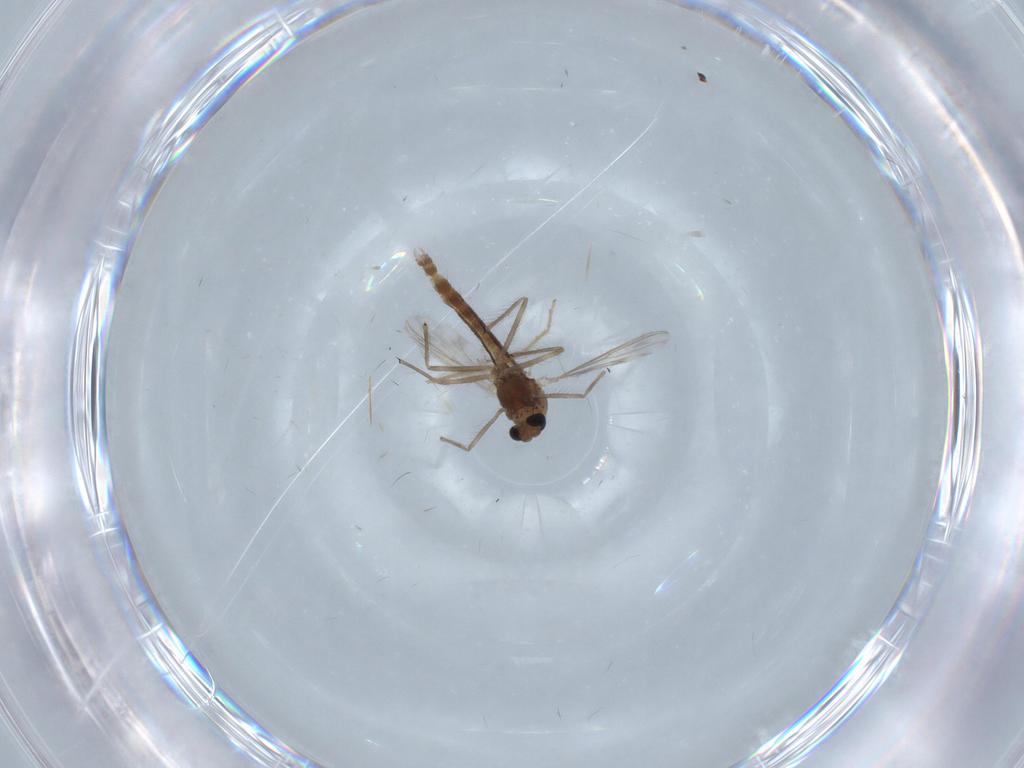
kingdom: Animalia
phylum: Arthropoda
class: Insecta
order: Diptera
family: Chironomidae
